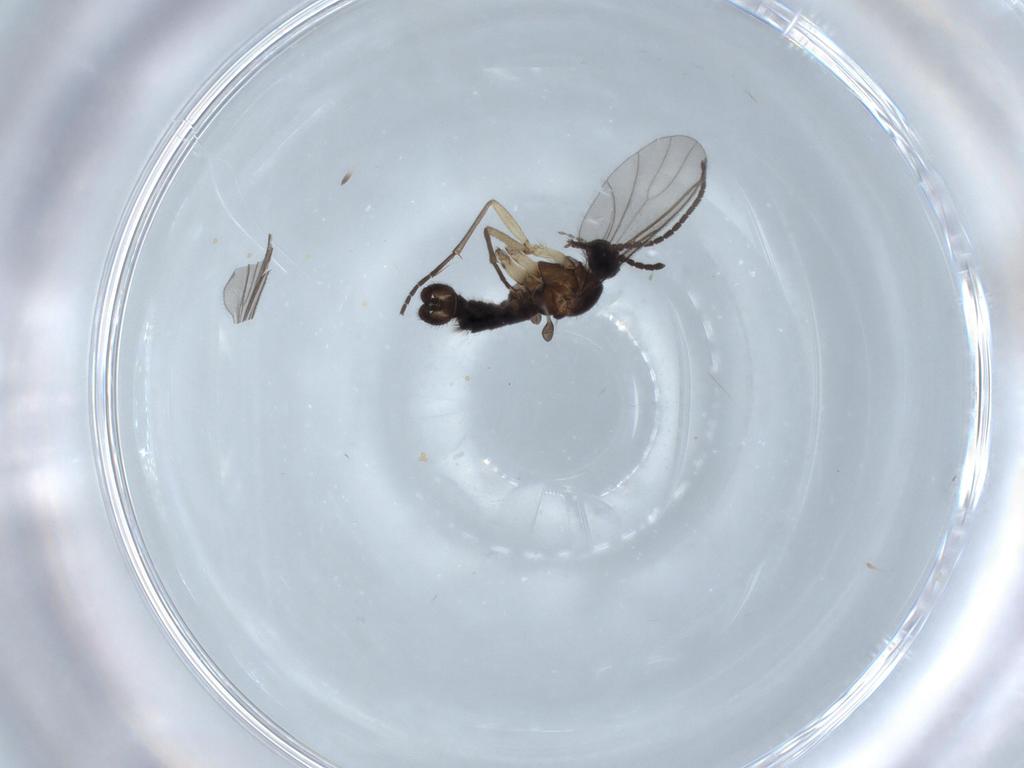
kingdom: Animalia
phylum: Arthropoda
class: Insecta
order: Diptera
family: Sciaridae
